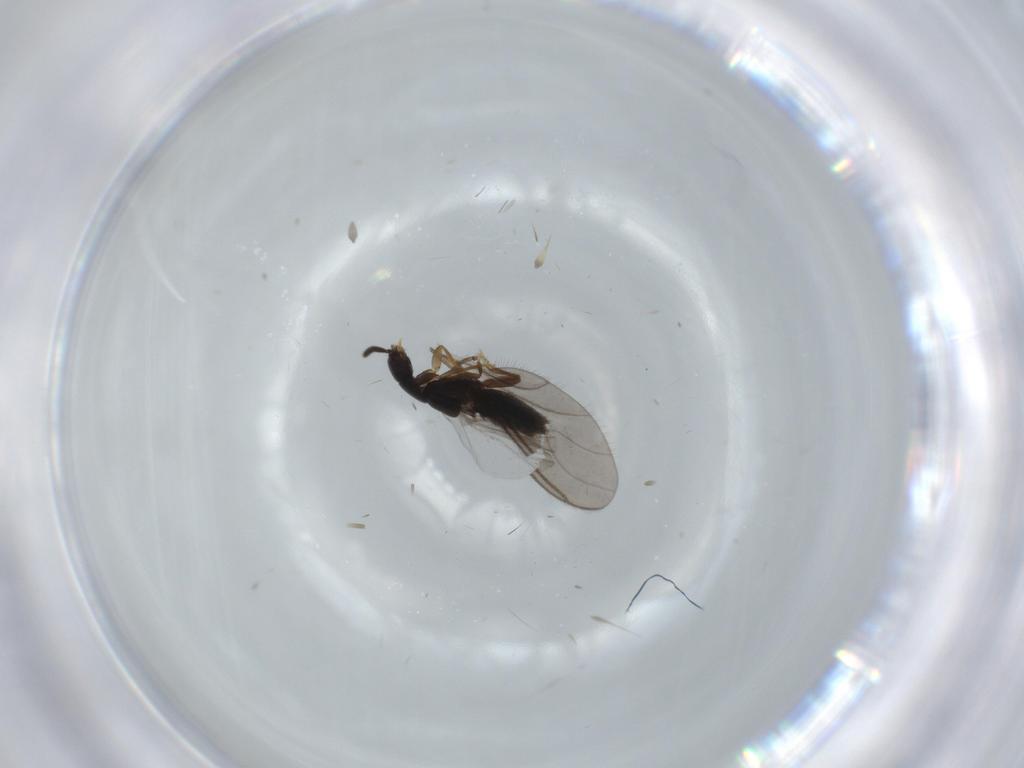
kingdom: Animalia
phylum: Arthropoda
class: Insecta
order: Coleoptera
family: Staphylinidae
